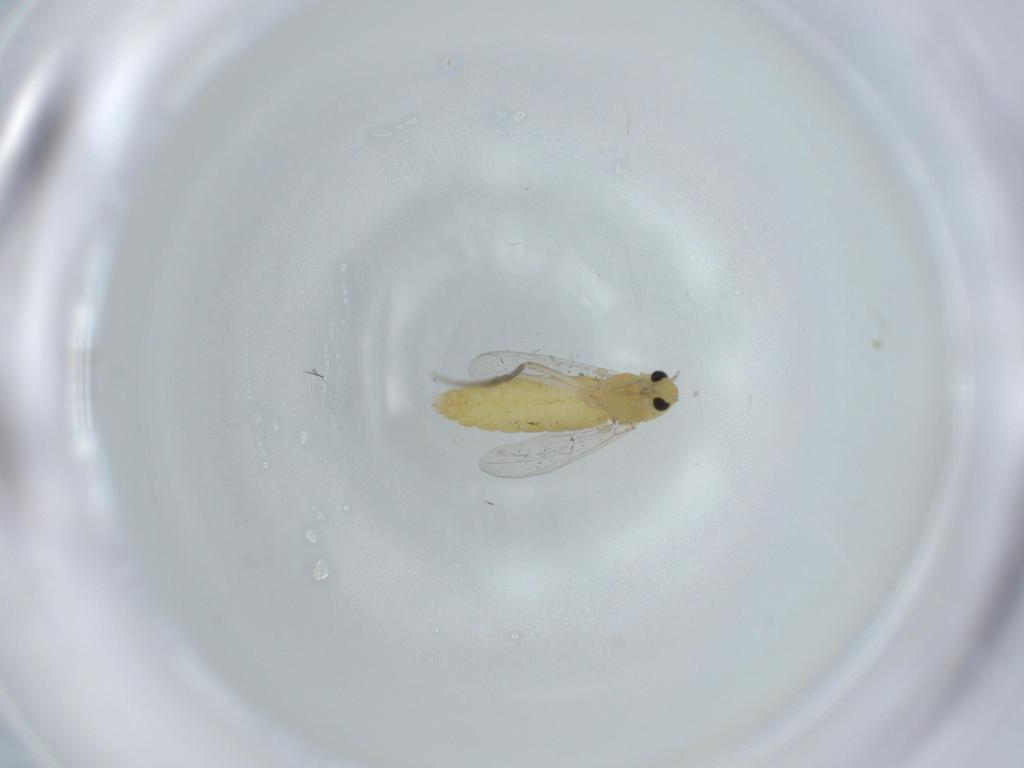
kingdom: Animalia
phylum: Arthropoda
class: Insecta
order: Diptera
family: Chironomidae
